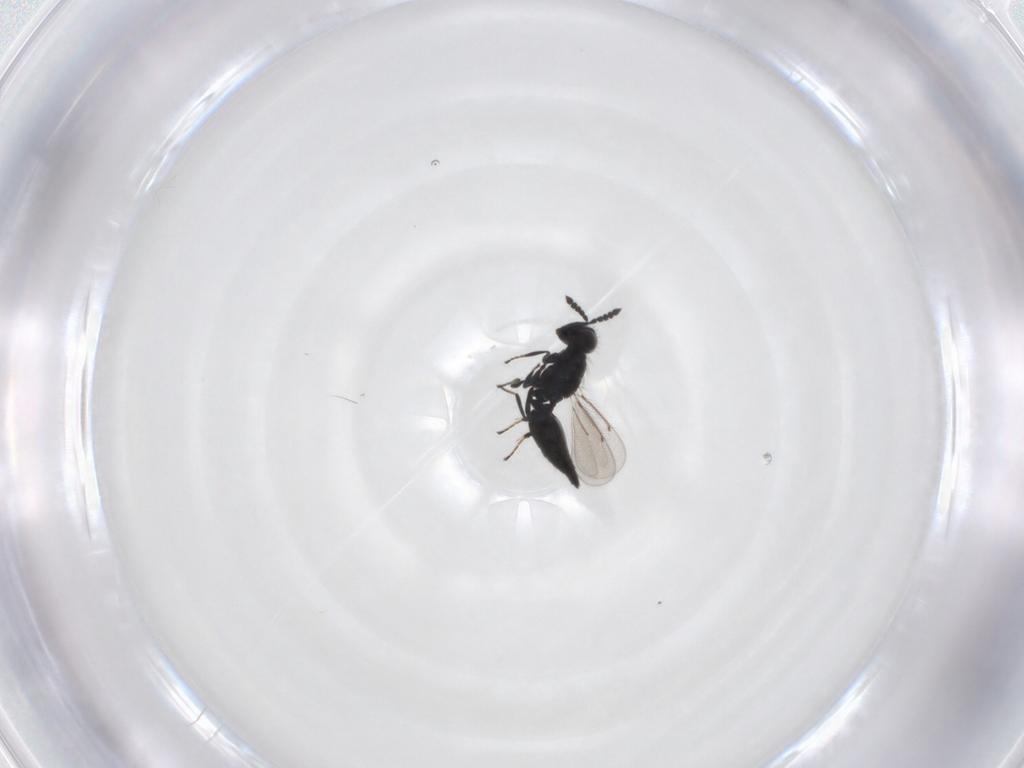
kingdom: Animalia
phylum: Arthropoda
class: Insecta
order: Hymenoptera
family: Eulophidae
